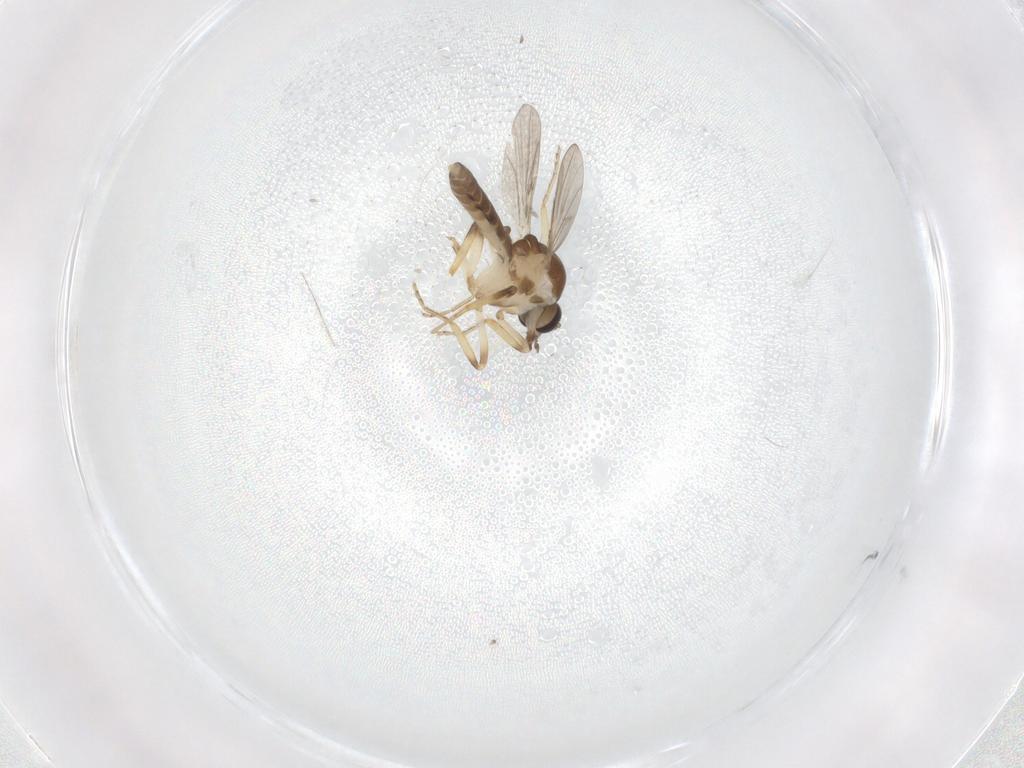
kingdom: Animalia
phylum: Arthropoda
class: Insecta
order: Diptera
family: Ceratopogonidae
